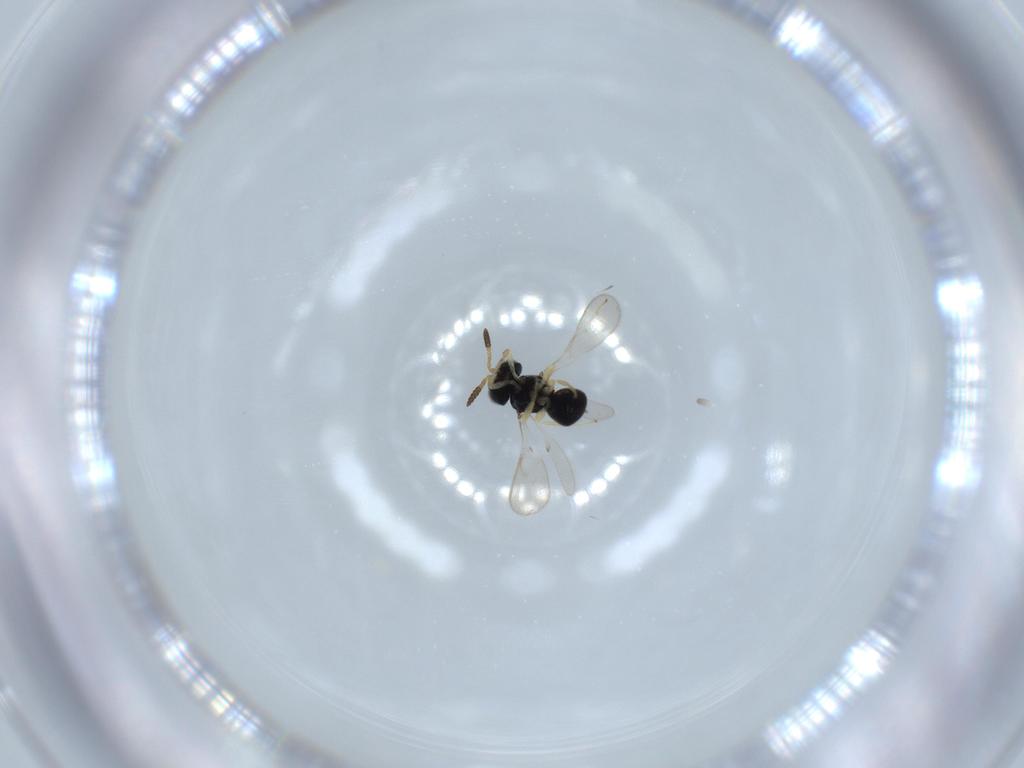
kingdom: Animalia
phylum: Arthropoda
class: Insecta
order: Hymenoptera
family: Scelionidae
